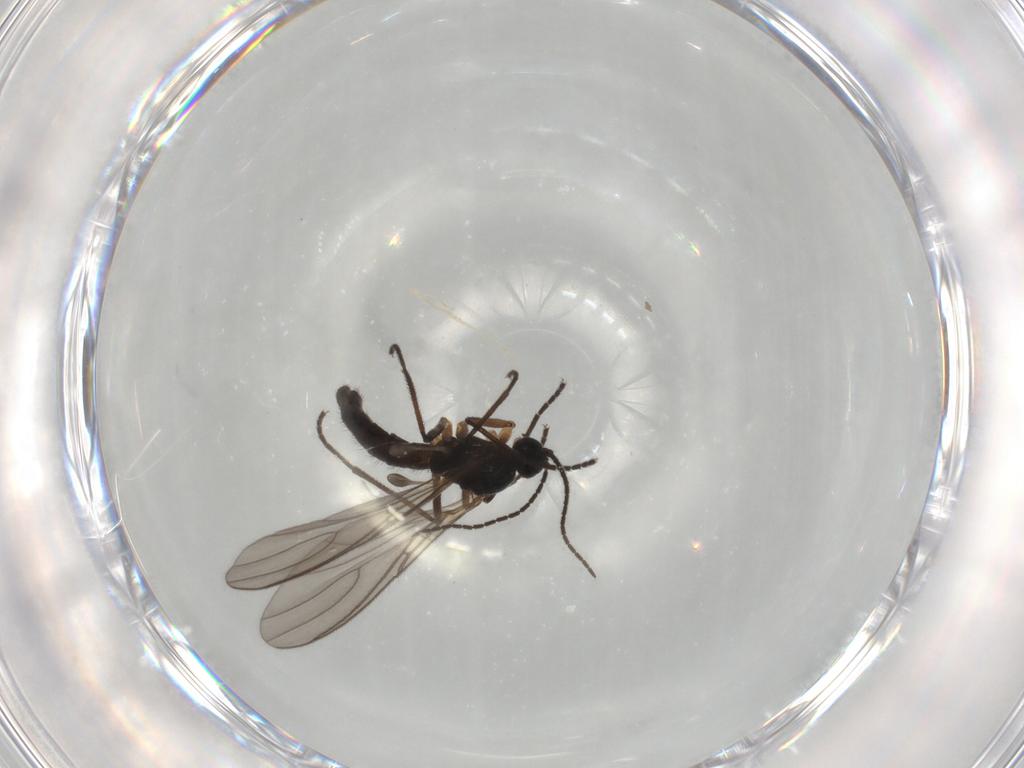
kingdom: Animalia
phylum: Arthropoda
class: Insecta
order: Diptera
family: Sciaridae
